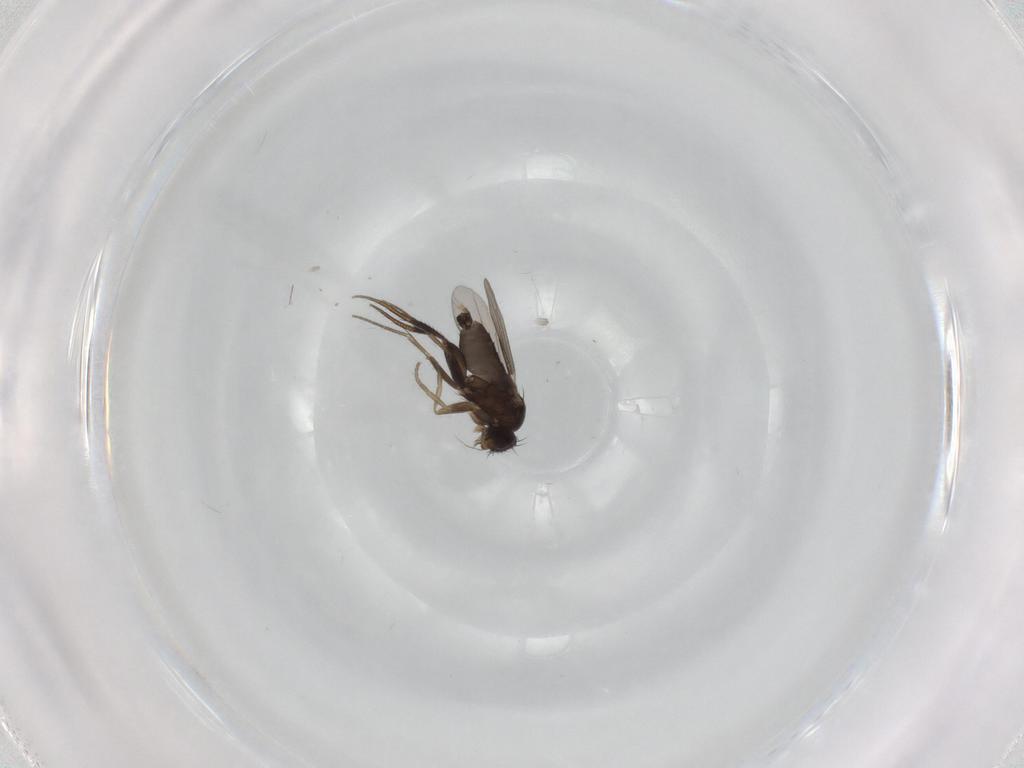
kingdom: Animalia
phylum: Arthropoda
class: Insecta
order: Diptera
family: Phoridae
